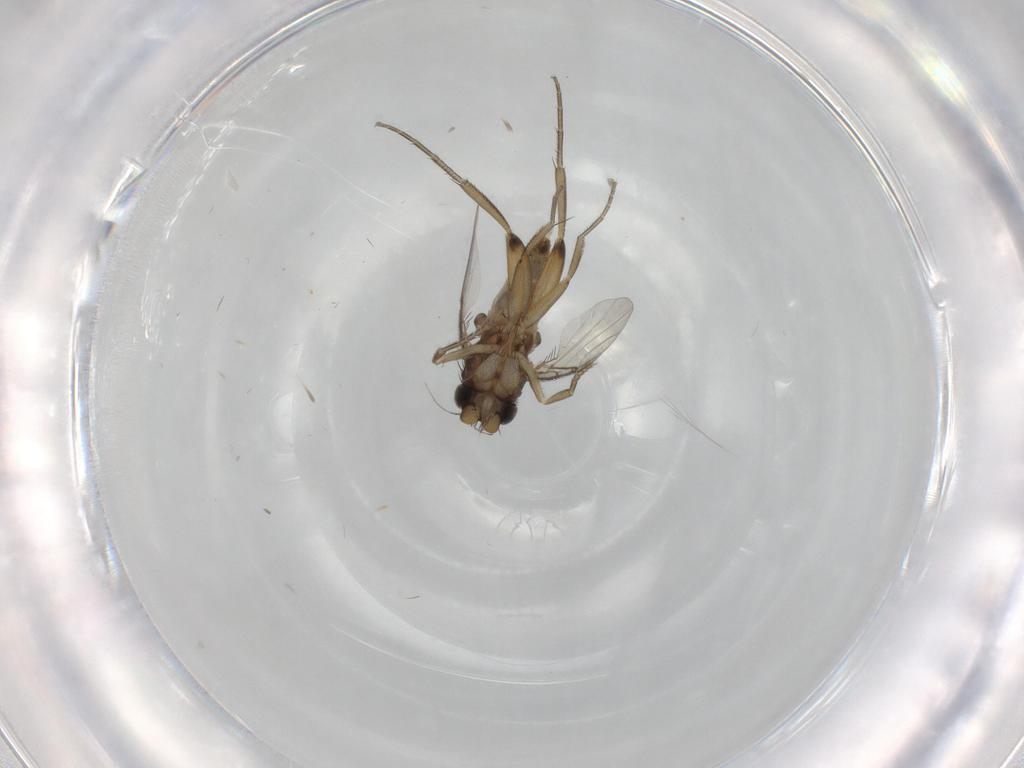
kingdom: Animalia
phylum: Arthropoda
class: Insecta
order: Diptera
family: Phoridae
